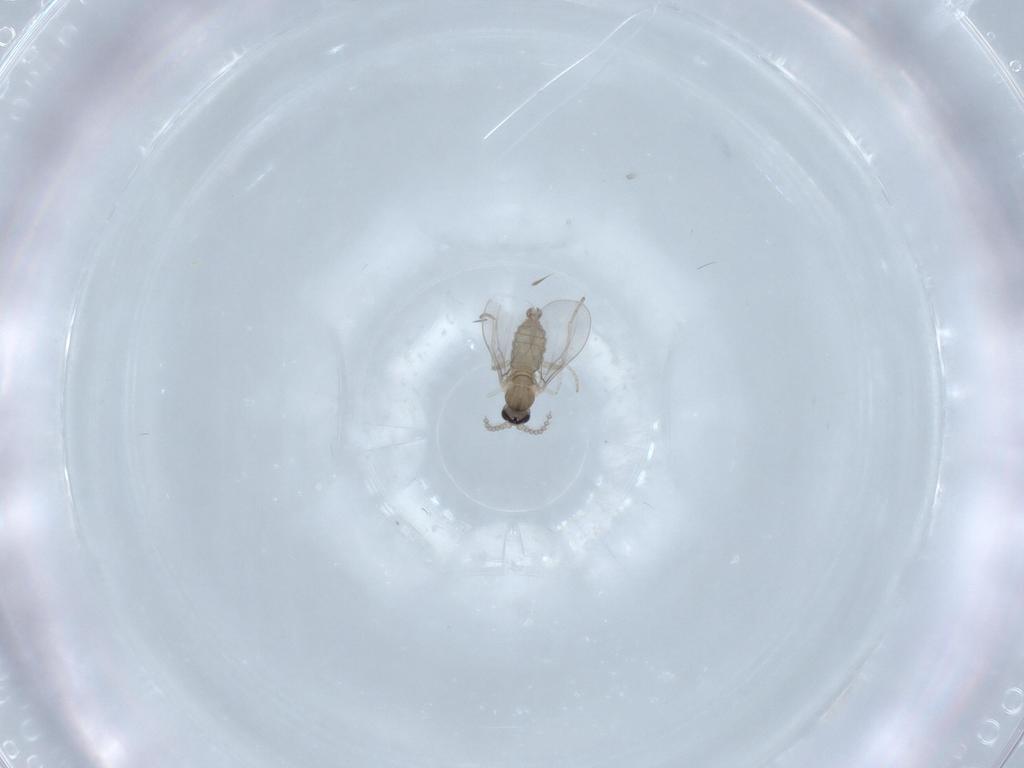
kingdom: Animalia
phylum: Arthropoda
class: Insecta
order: Diptera
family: Cecidomyiidae
